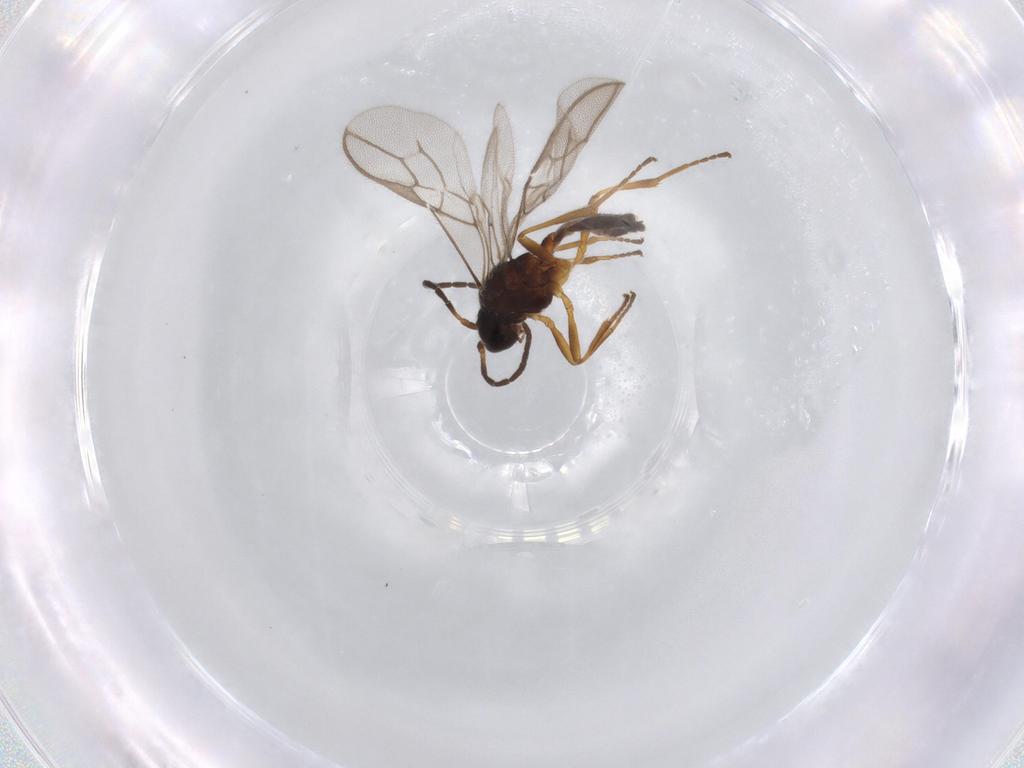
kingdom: Animalia
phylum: Arthropoda
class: Insecta
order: Hymenoptera
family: Braconidae
